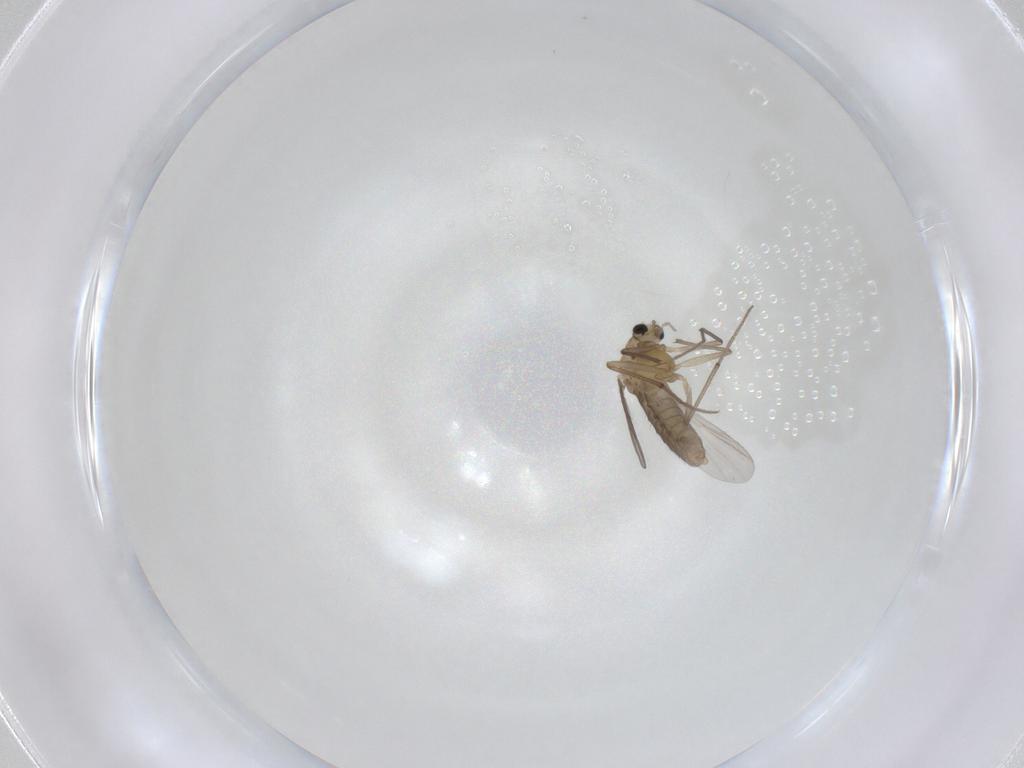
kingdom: Animalia
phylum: Arthropoda
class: Insecta
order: Diptera
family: Chironomidae
